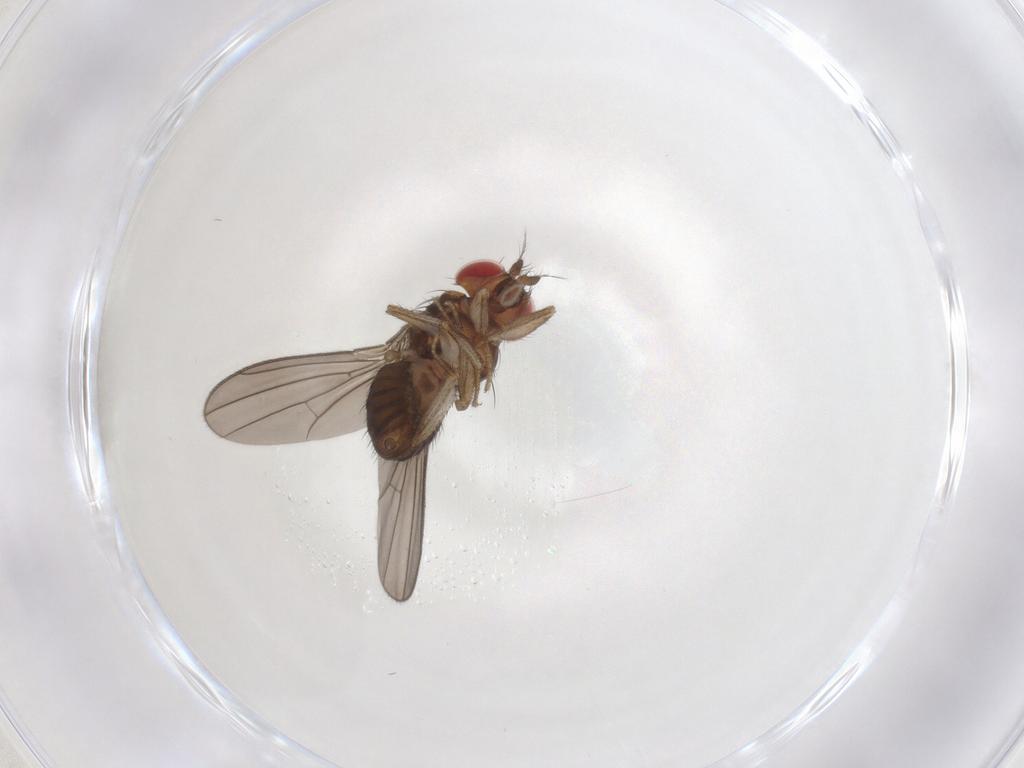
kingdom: Animalia
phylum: Arthropoda
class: Insecta
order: Diptera
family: Drosophilidae
